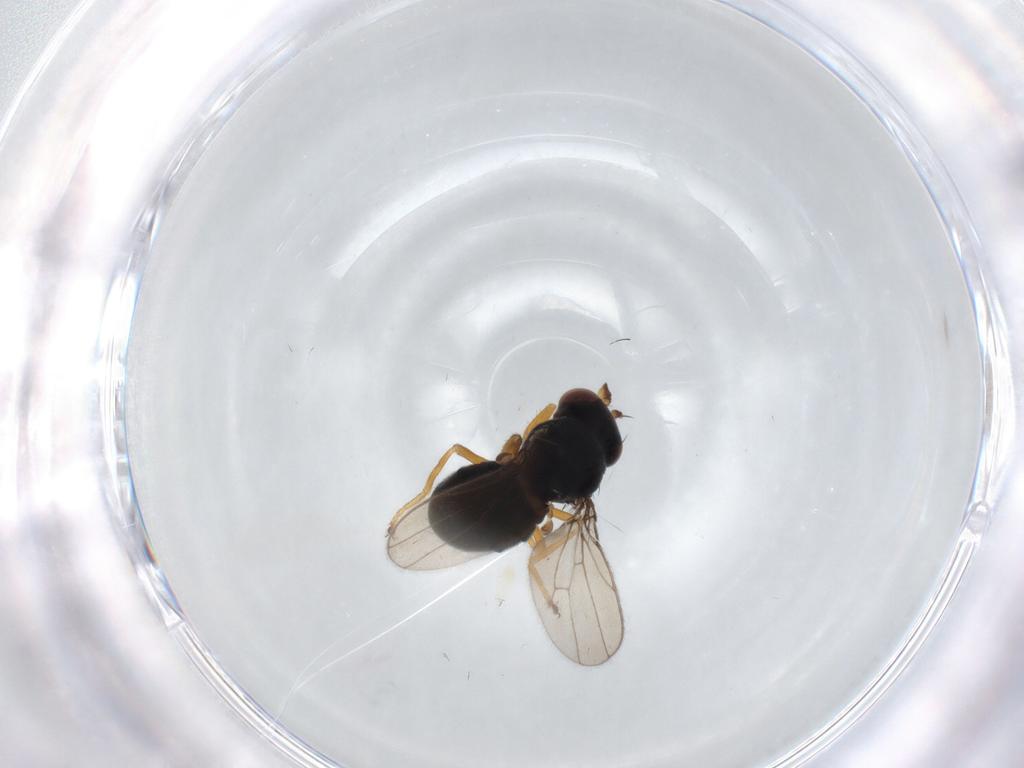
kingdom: Animalia
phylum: Arthropoda
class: Insecta
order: Diptera
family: Ephydridae
